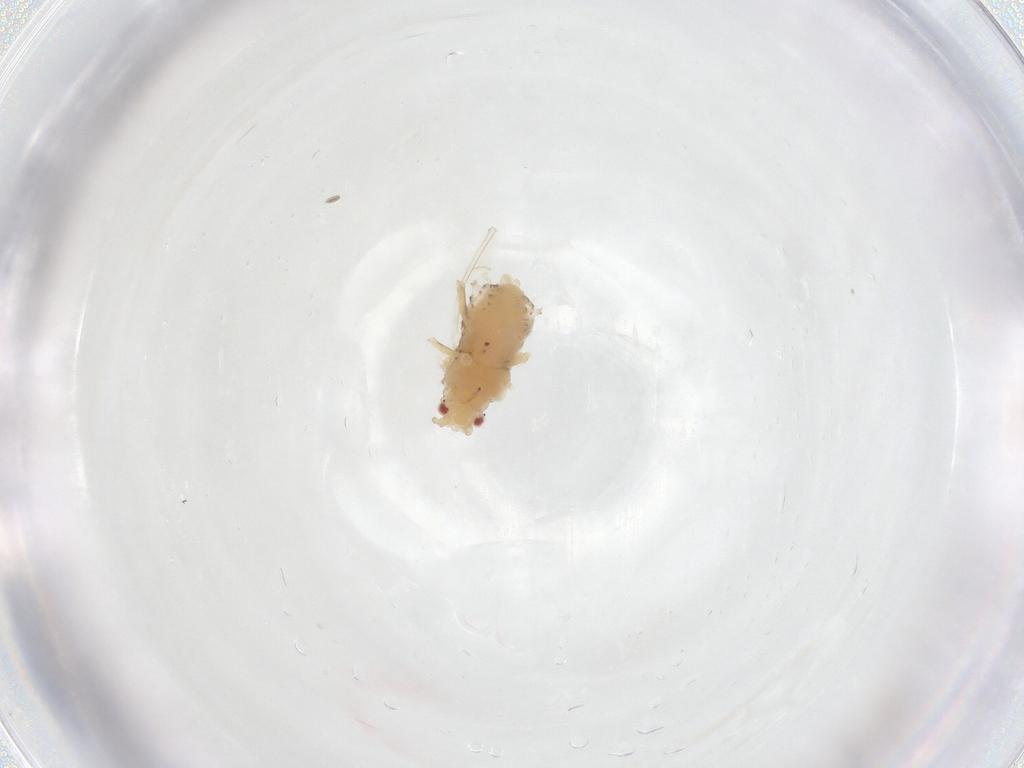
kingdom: Animalia
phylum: Arthropoda
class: Insecta
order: Hemiptera
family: Aphididae
